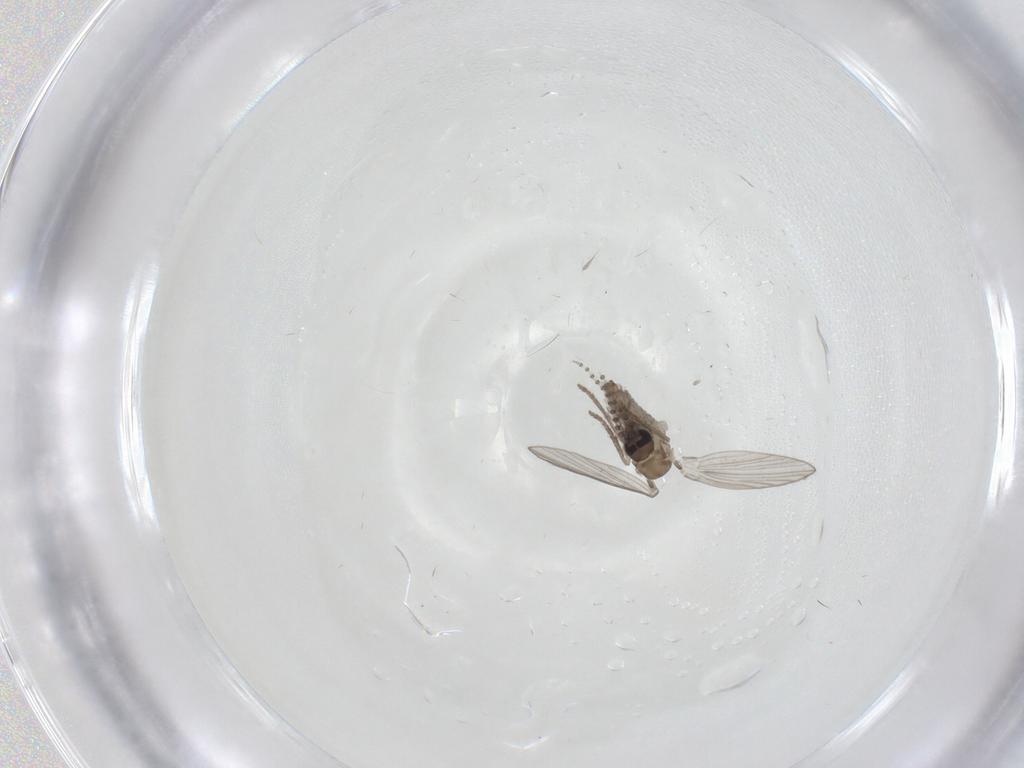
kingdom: Animalia
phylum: Arthropoda
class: Insecta
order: Diptera
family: Psychodidae
